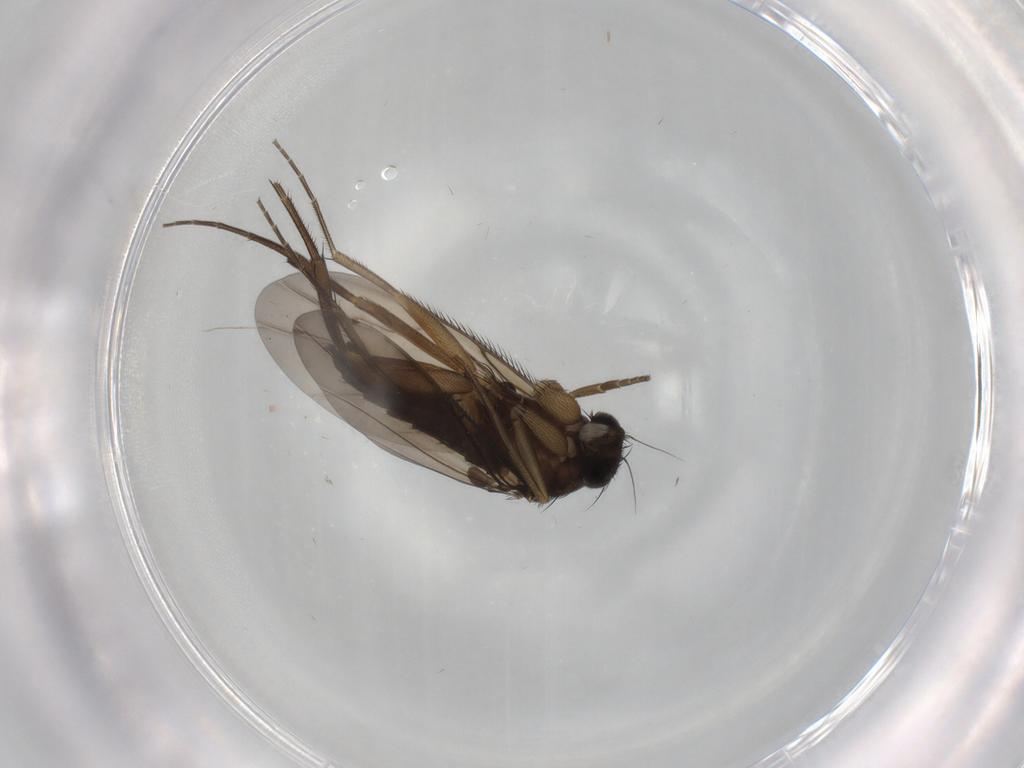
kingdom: Animalia
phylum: Arthropoda
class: Insecta
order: Diptera
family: Phoridae
